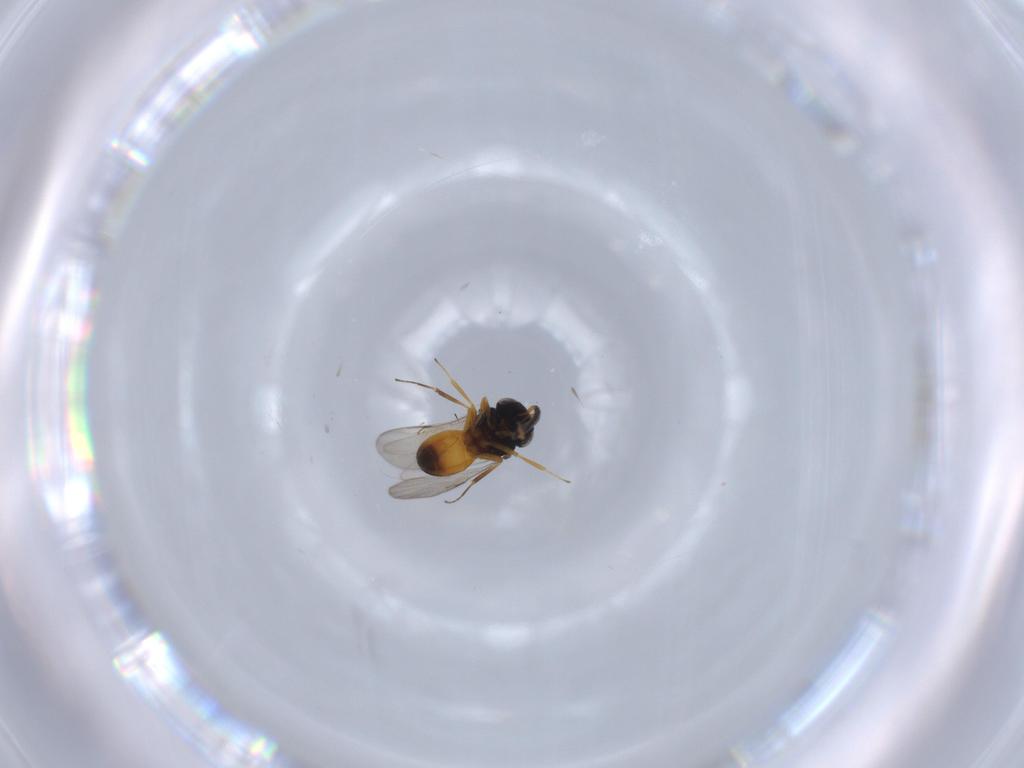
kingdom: Animalia
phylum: Arthropoda
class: Insecta
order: Hymenoptera
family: Scelionidae
